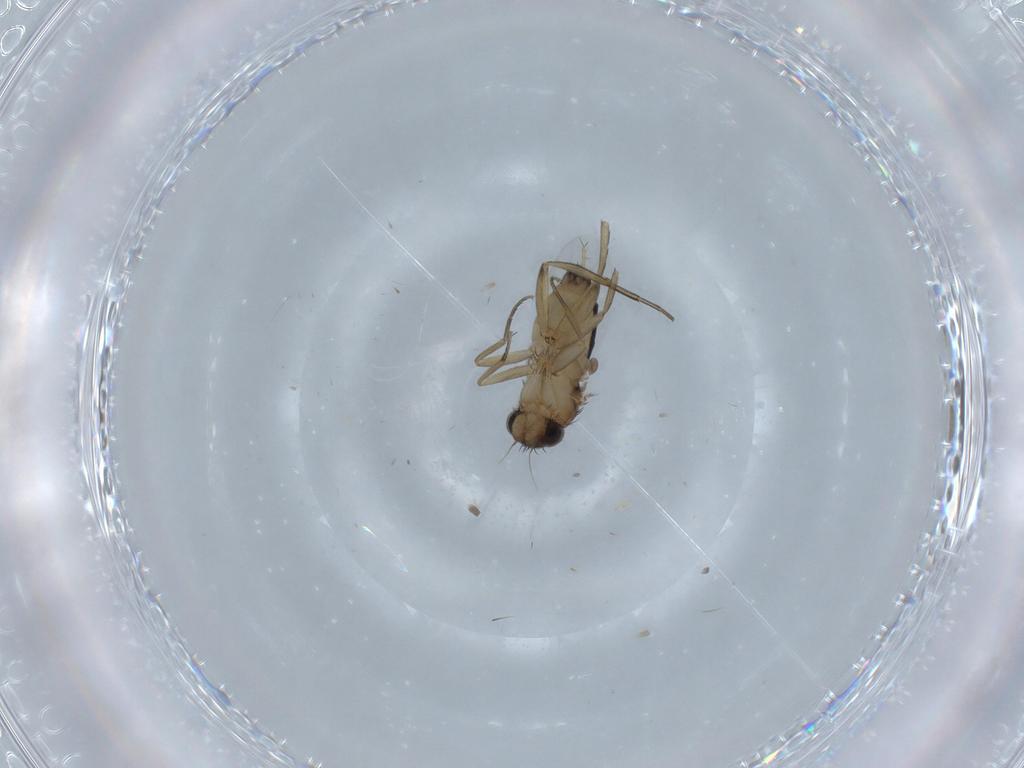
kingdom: Animalia
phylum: Arthropoda
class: Insecta
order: Diptera
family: Cecidomyiidae
